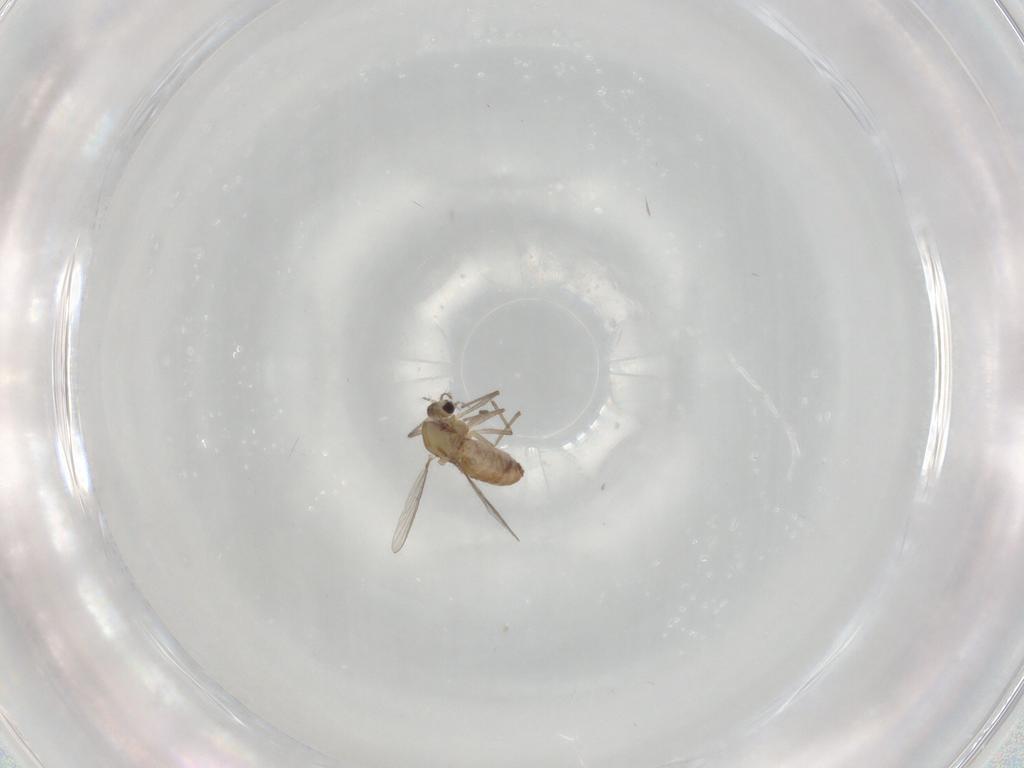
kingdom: Animalia
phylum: Arthropoda
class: Insecta
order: Diptera
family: Chironomidae
